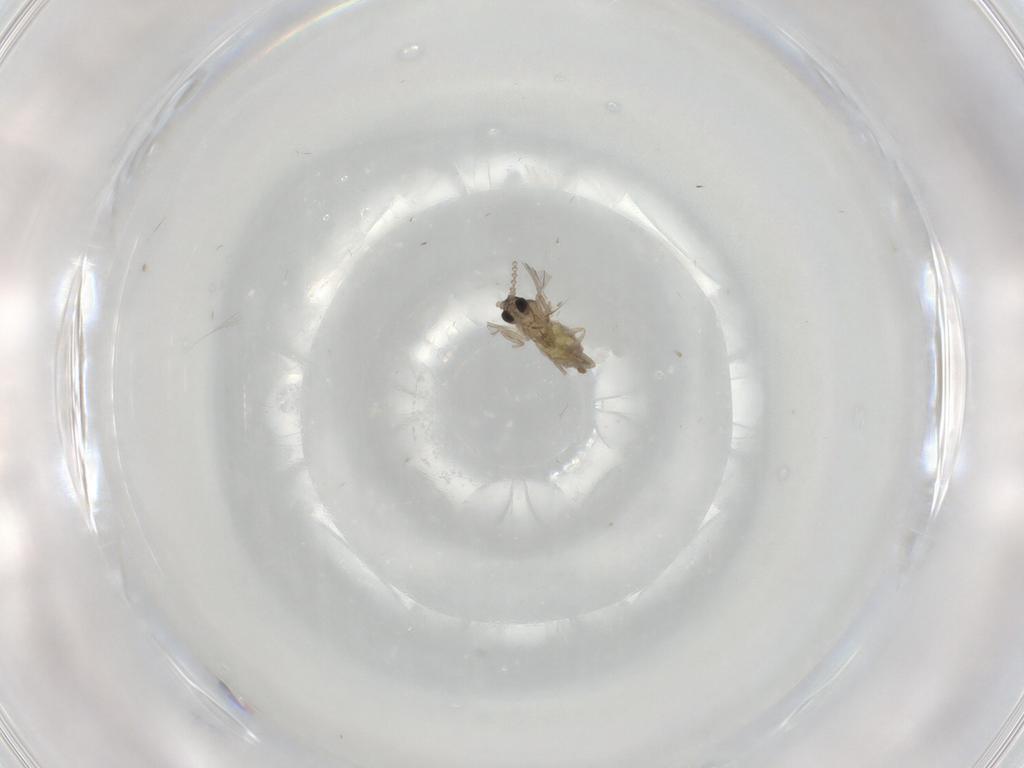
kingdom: Animalia
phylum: Arthropoda
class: Insecta
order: Diptera
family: Cecidomyiidae
